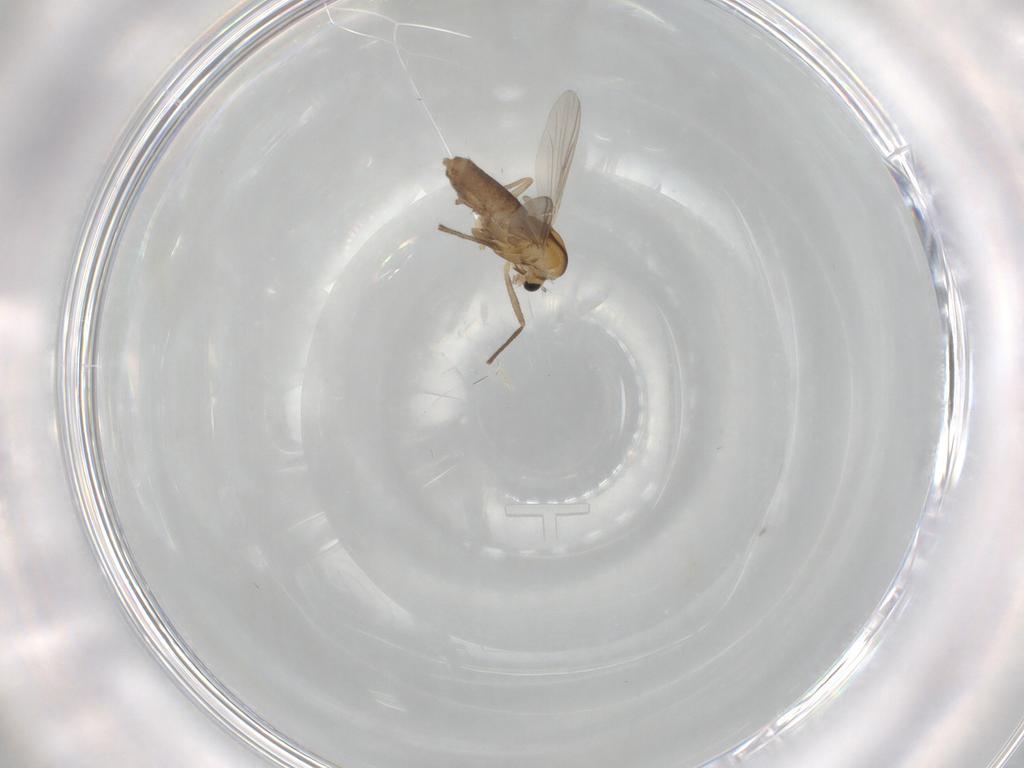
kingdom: Animalia
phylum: Arthropoda
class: Insecta
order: Diptera
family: Chironomidae
